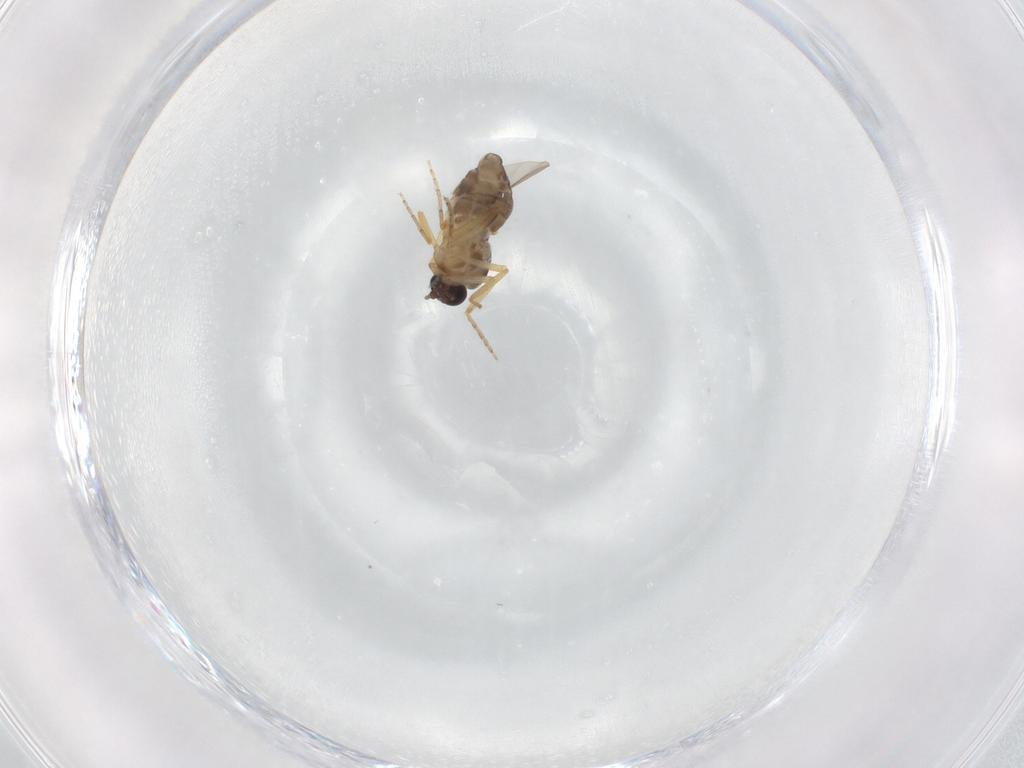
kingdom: Animalia
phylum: Arthropoda
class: Insecta
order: Diptera
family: Ceratopogonidae
